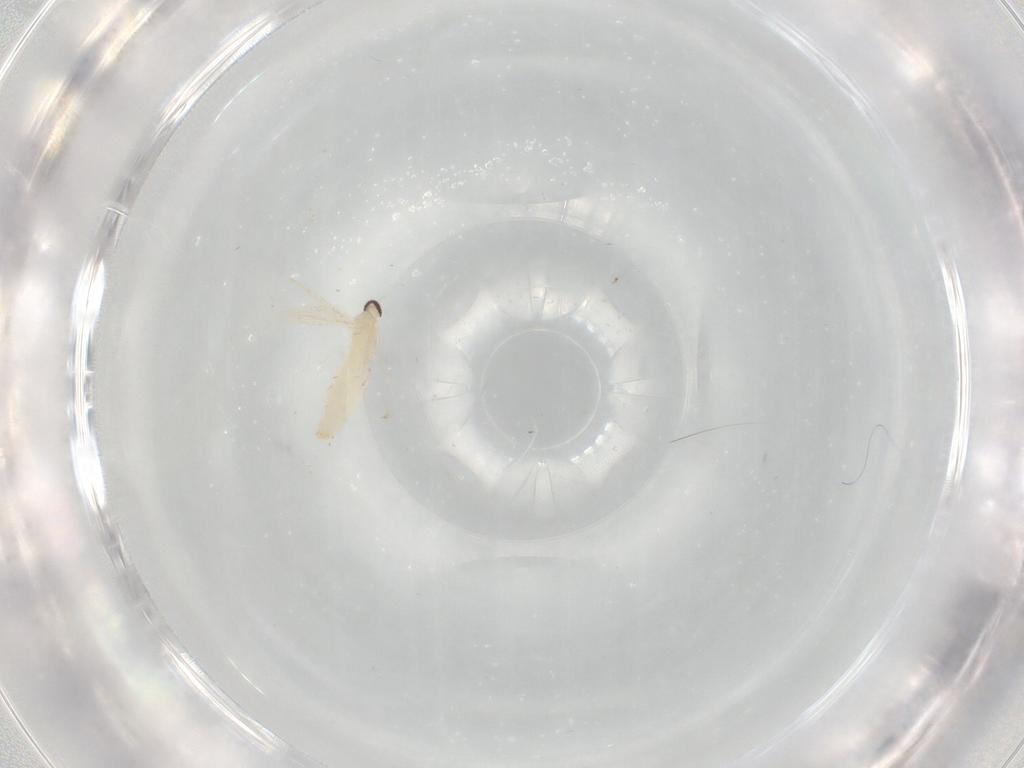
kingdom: Animalia
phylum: Arthropoda
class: Insecta
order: Diptera
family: Cecidomyiidae
